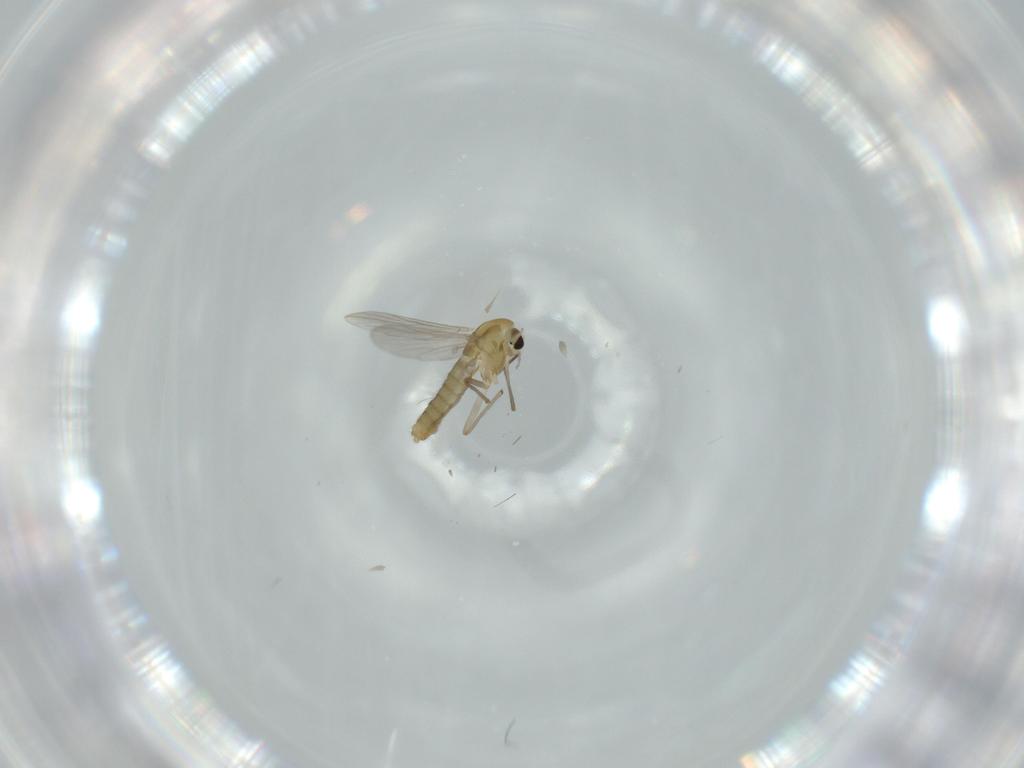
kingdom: Animalia
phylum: Arthropoda
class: Insecta
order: Diptera
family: Chironomidae
